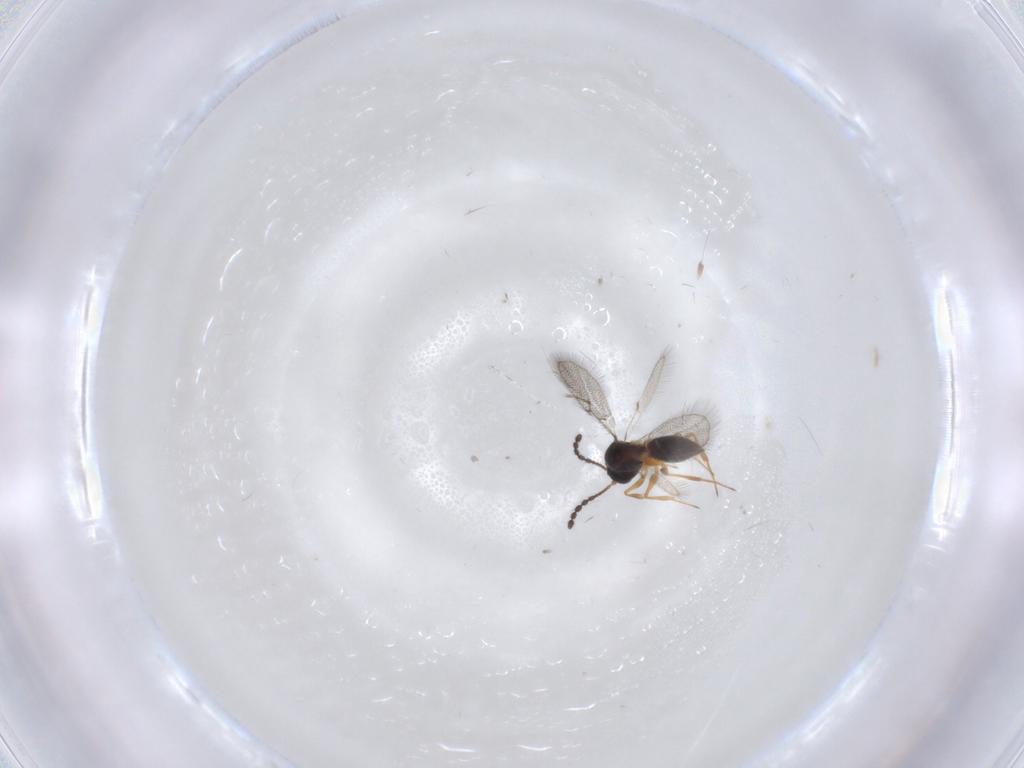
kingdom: Animalia
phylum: Arthropoda
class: Insecta
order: Hymenoptera
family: Figitidae
